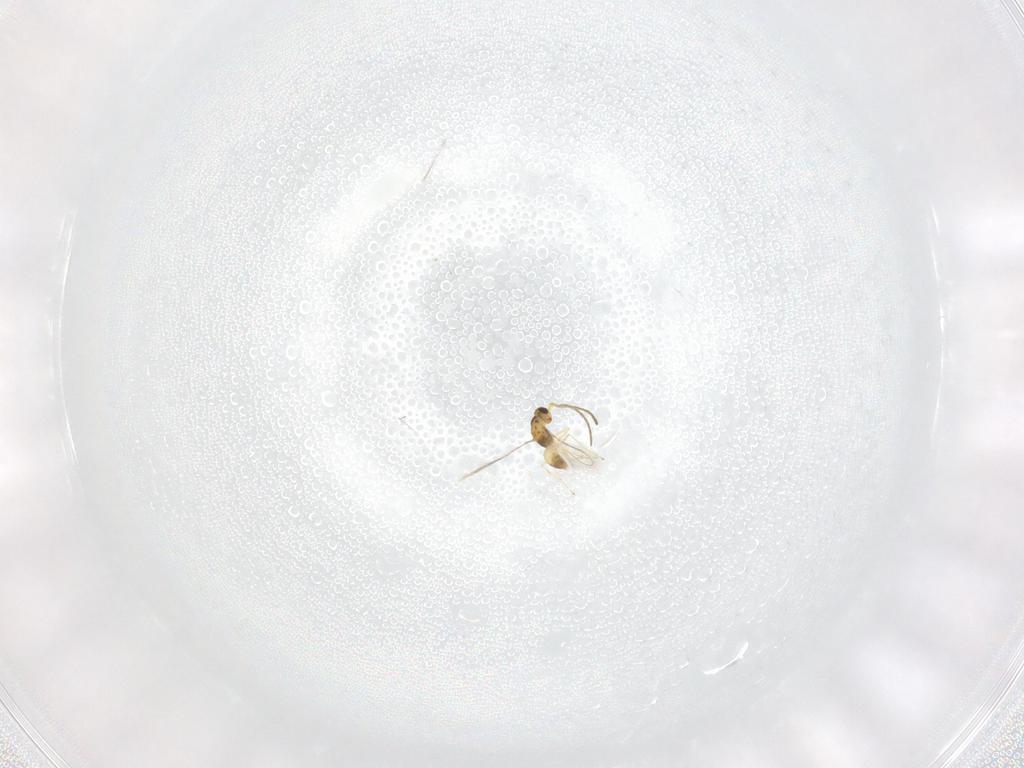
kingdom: Animalia
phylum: Arthropoda
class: Insecta
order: Hymenoptera
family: Mymaridae
